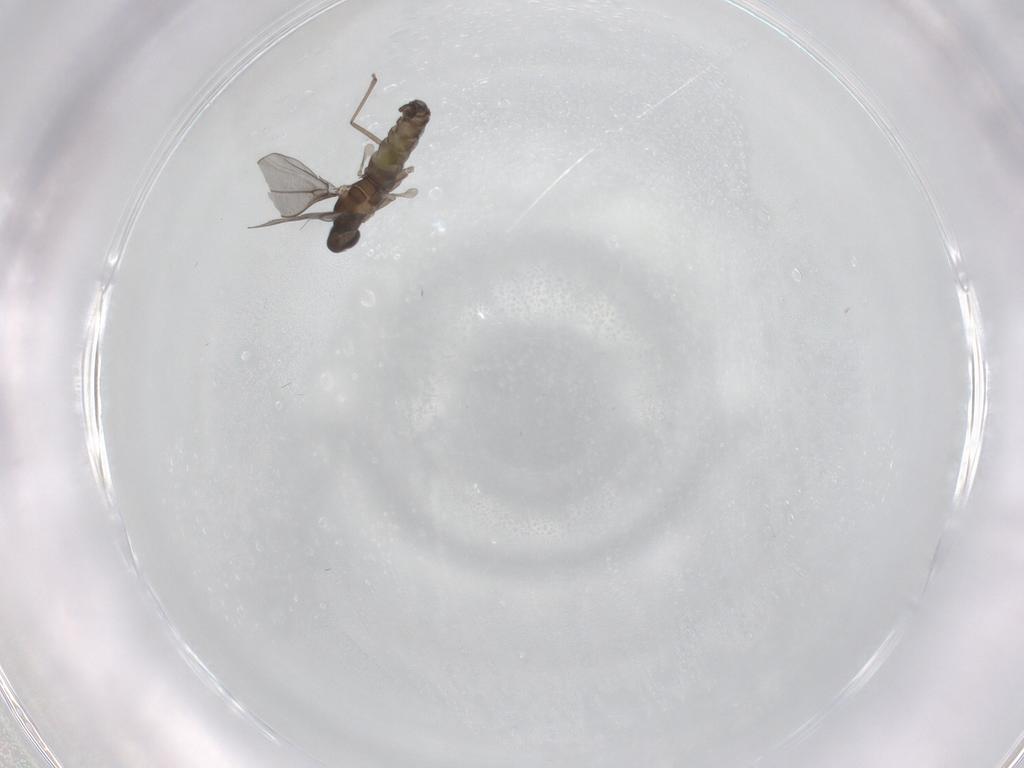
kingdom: Animalia
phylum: Arthropoda
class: Insecta
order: Diptera
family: Cecidomyiidae
